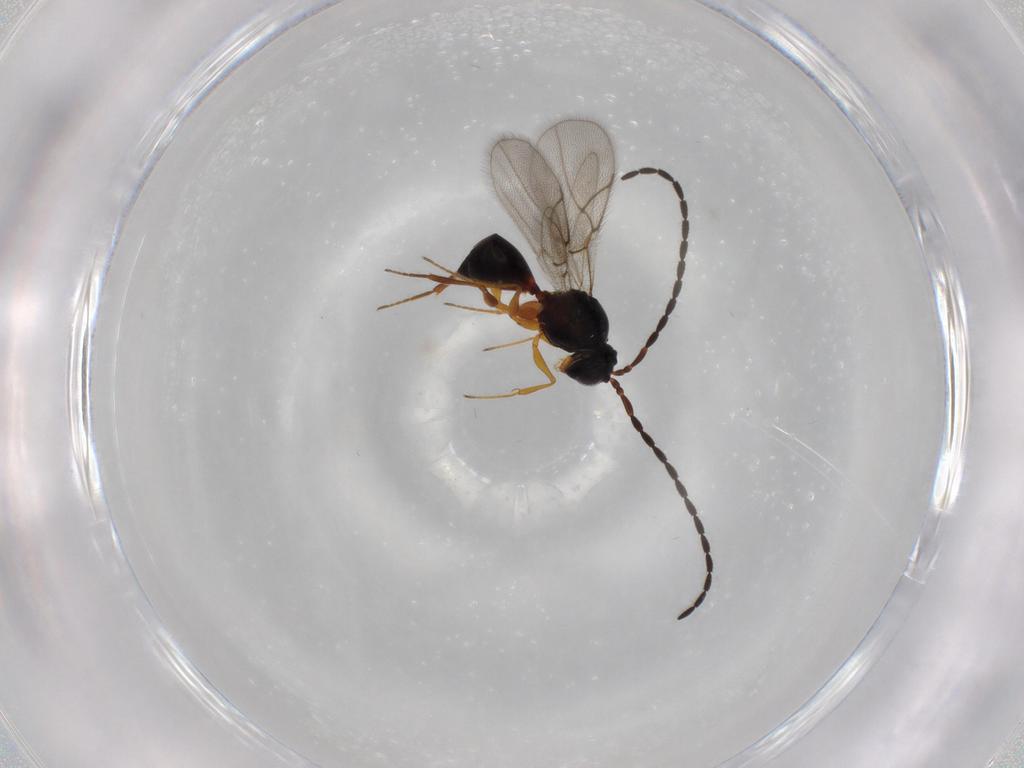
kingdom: Animalia
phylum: Arthropoda
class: Insecta
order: Hymenoptera
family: Figitidae
